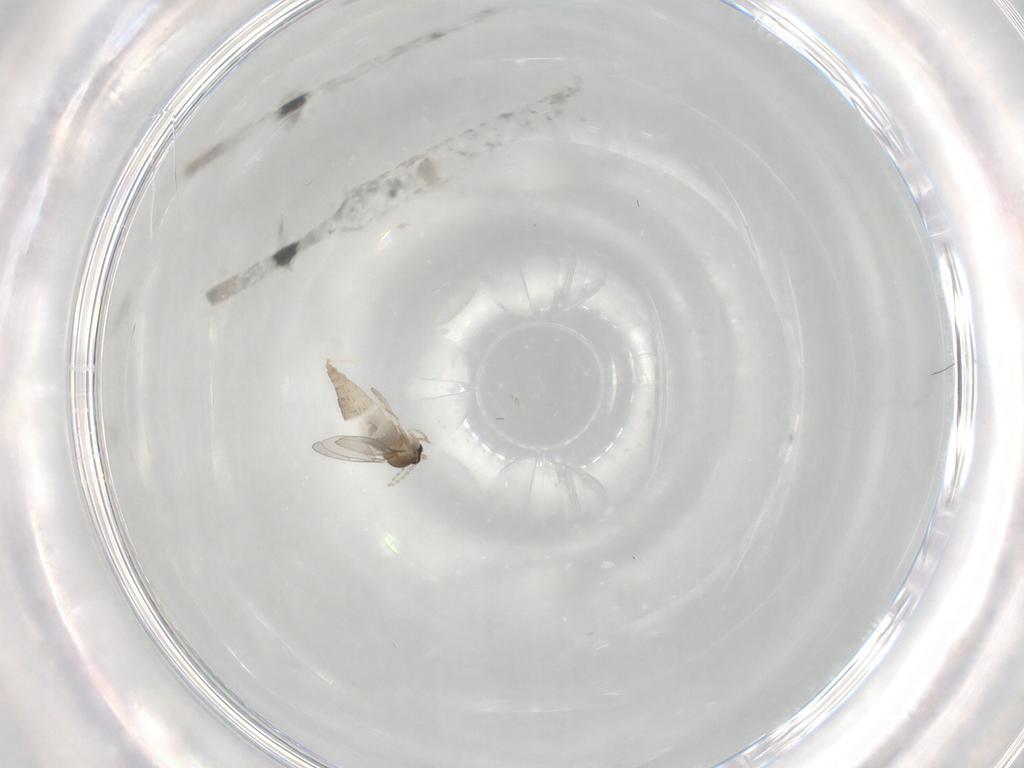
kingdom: Animalia
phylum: Arthropoda
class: Insecta
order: Diptera
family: Cecidomyiidae
